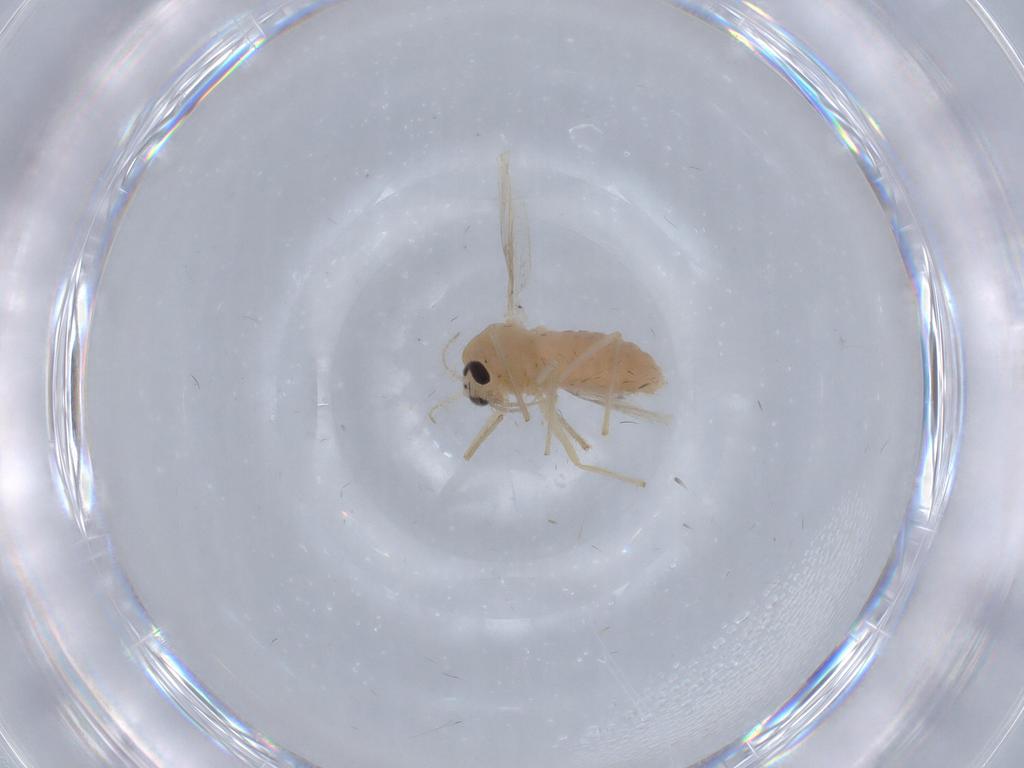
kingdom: Animalia
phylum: Arthropoda
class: Insecta
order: Diptera
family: Chironomidae
